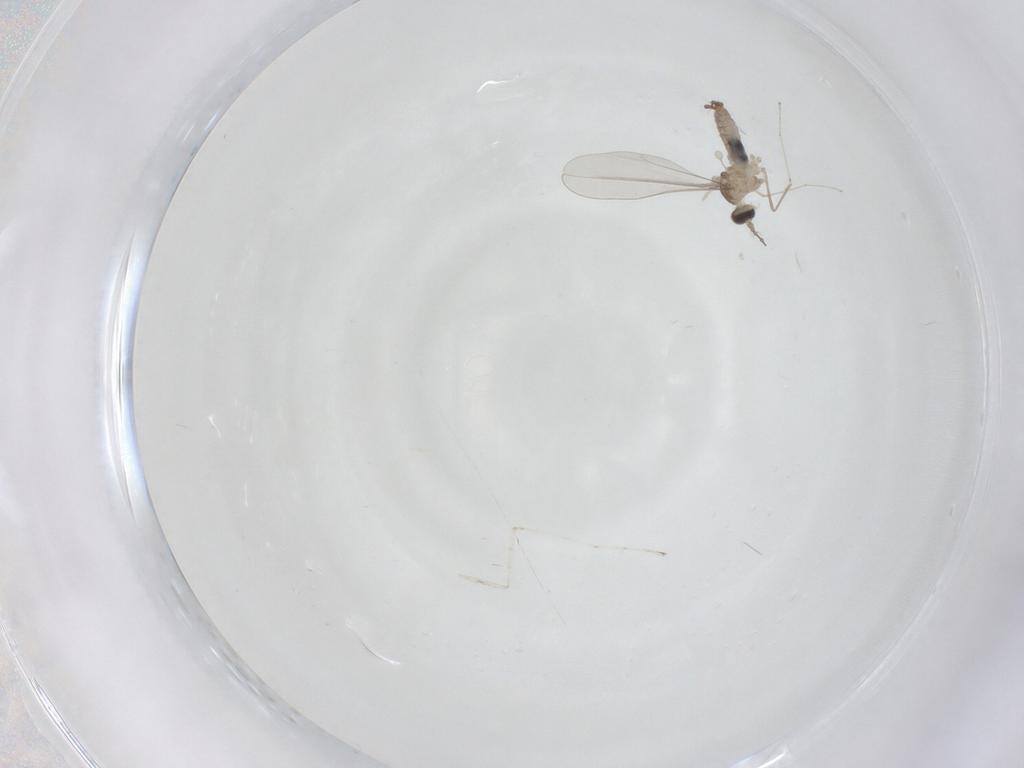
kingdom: Animalia
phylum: Arthropoda
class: Insecta
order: Diptera
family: Cecidomyiidae
